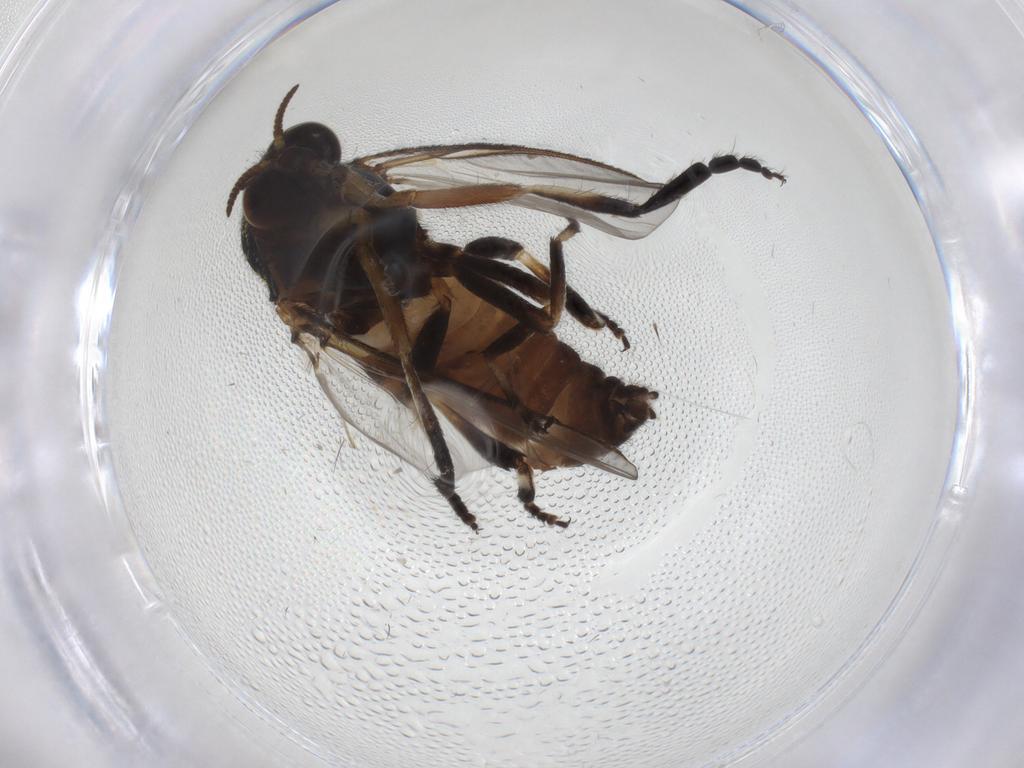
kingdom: Animalia
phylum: Arthropoda
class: Insecta
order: Diptera
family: Limoniidae
